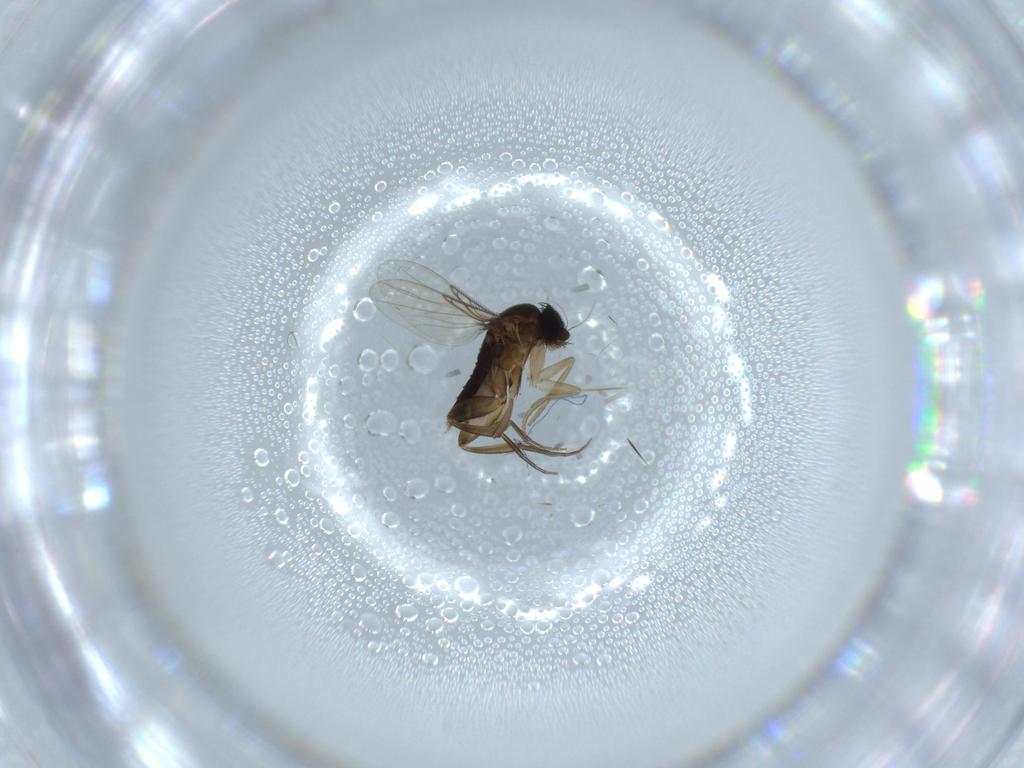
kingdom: Animalia
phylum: Arthropoda
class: Insecta
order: Diptera
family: Cecidomyiidae
